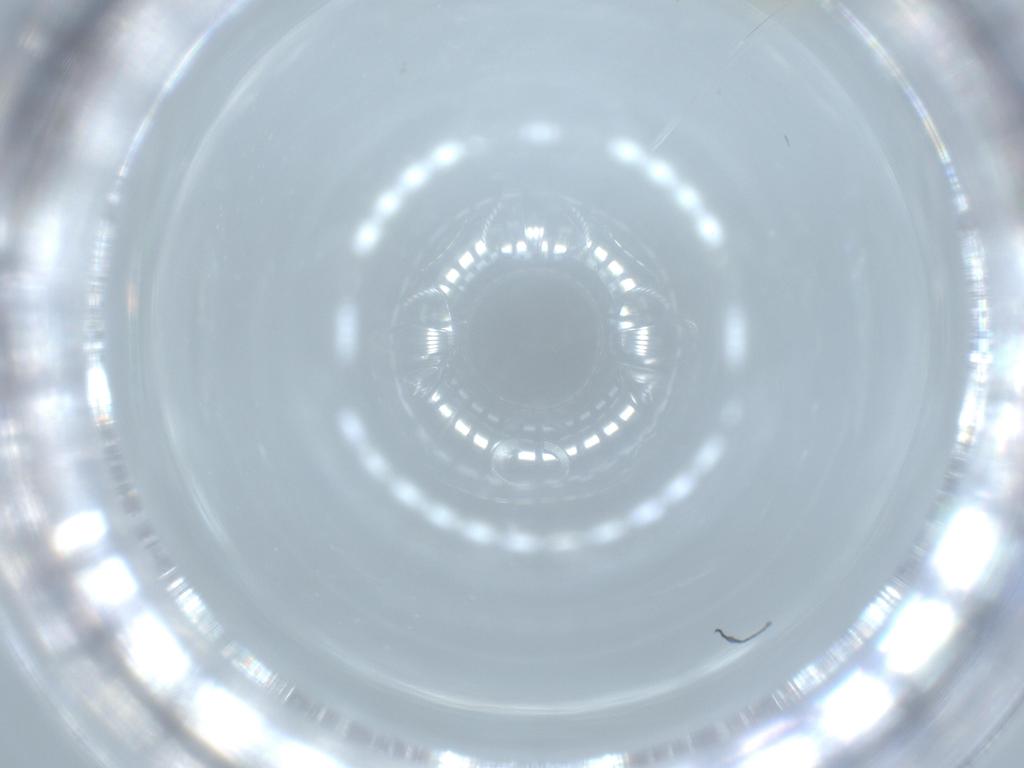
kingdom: Animalia
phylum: Arthropoda
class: Insecta
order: Psocodea
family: Caeciliusidae
